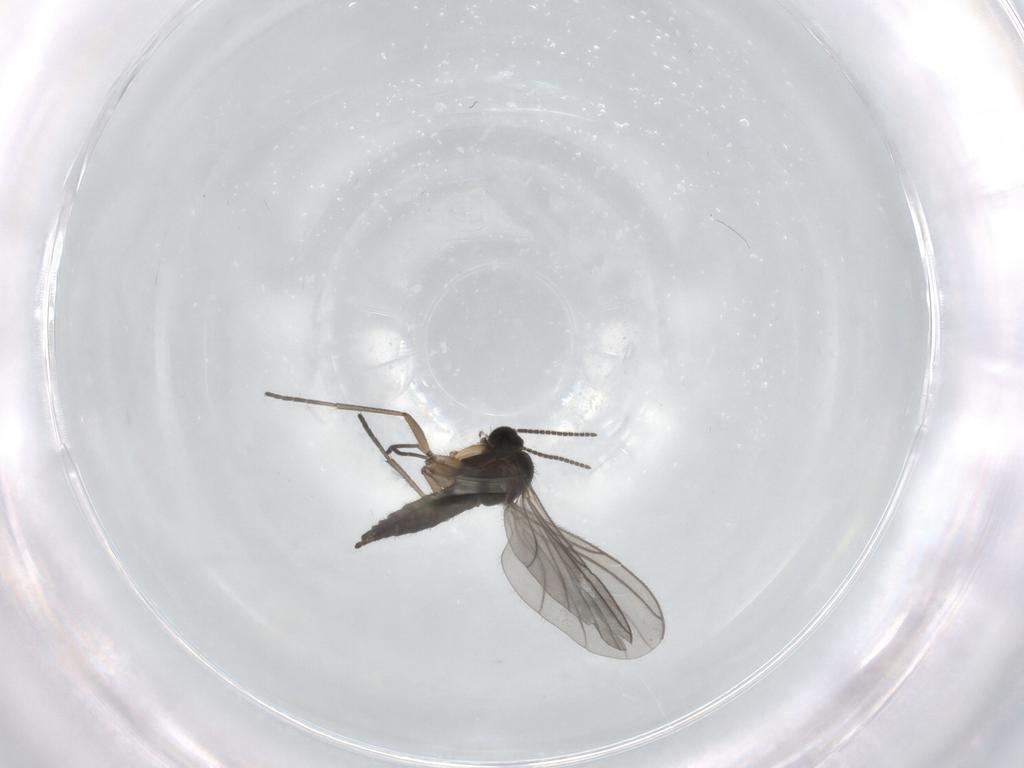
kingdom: Animalia
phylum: Arthropoda
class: Insecta
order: Diptera
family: Sciaridae
